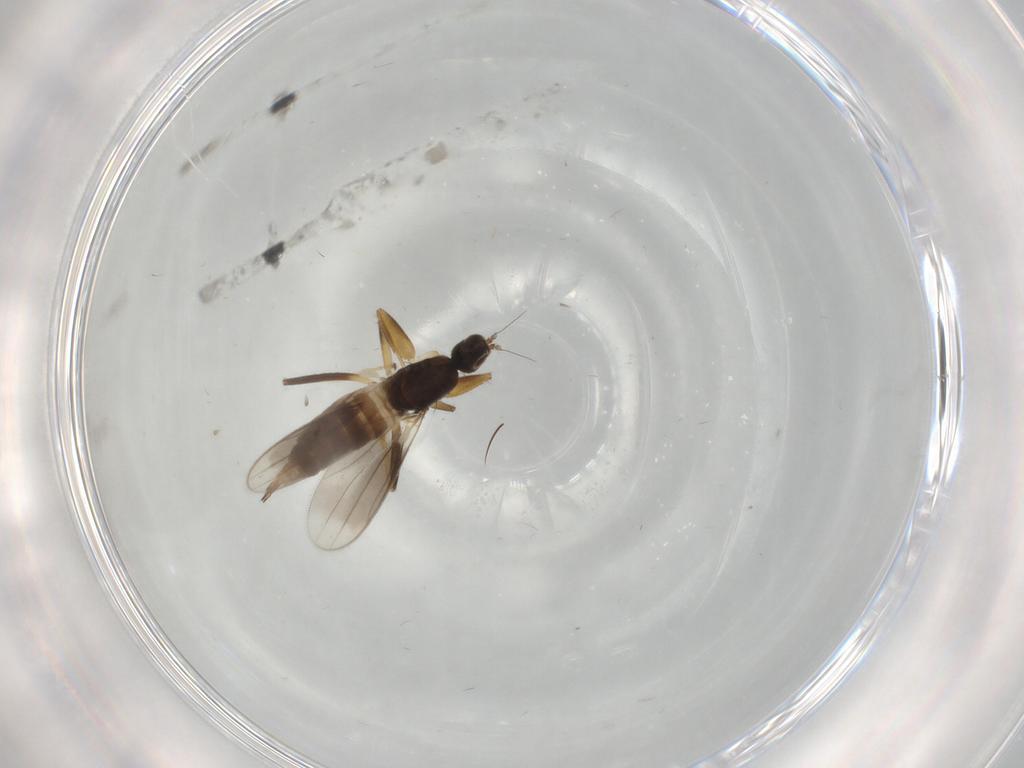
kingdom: Animalia
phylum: Arthropoda
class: Insecta
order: Diptera
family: Hybotidae
